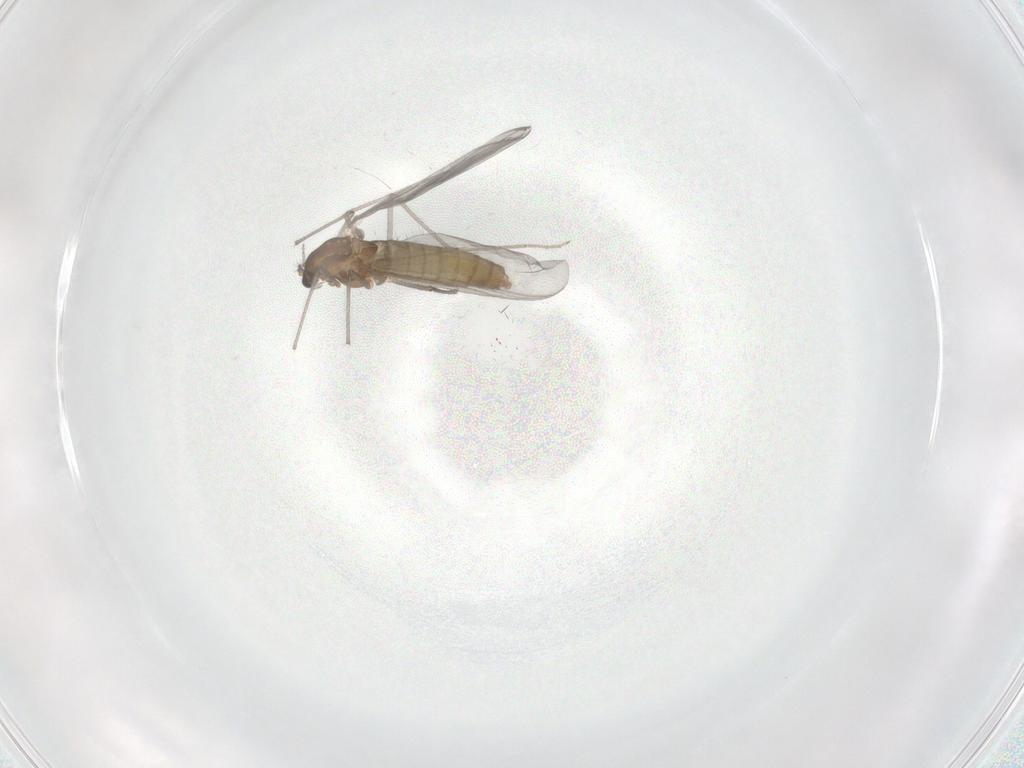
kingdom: Animalia
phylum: Arthropoda
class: Insecta
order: Diptera
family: Chironomidae
